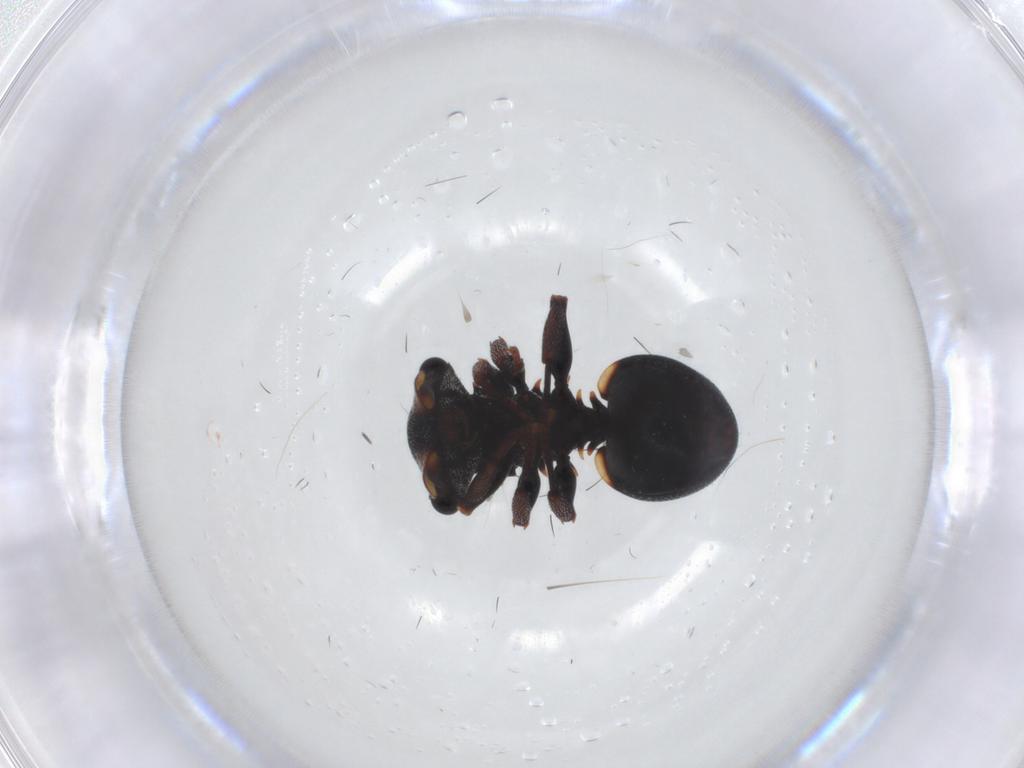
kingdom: Animalia
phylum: Arthropoda
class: Insecta
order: Hymenoptera
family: Formicidae
